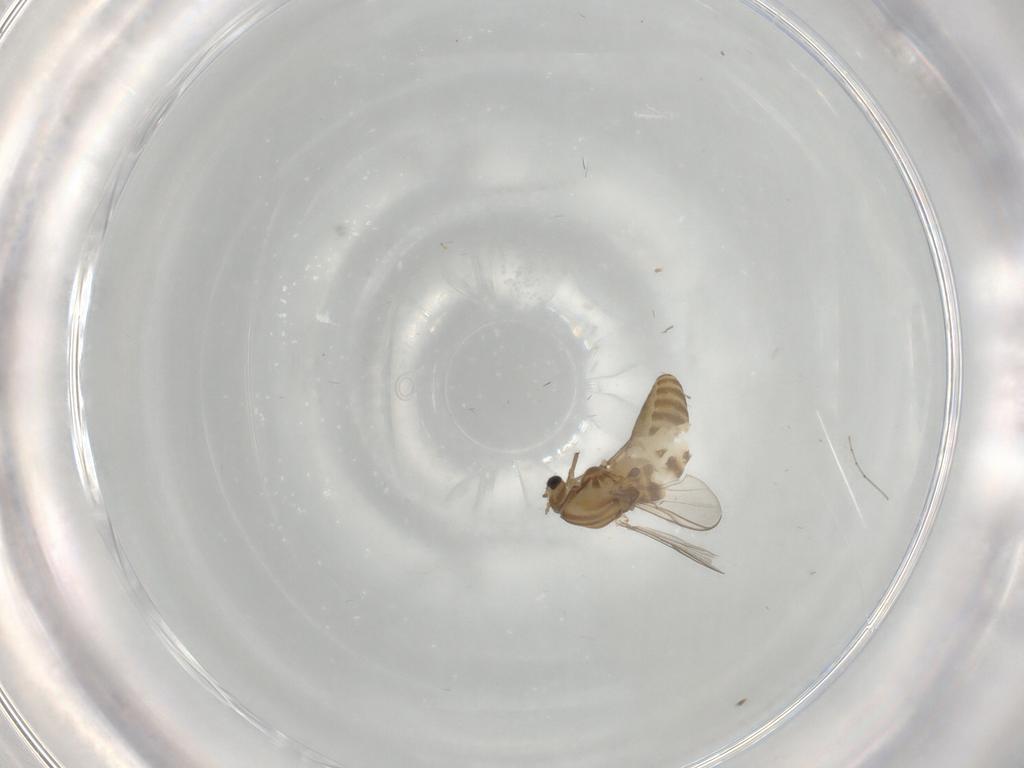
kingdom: Animalia
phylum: Arthropoda
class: Insecta
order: Diptera
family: Chironomidae
